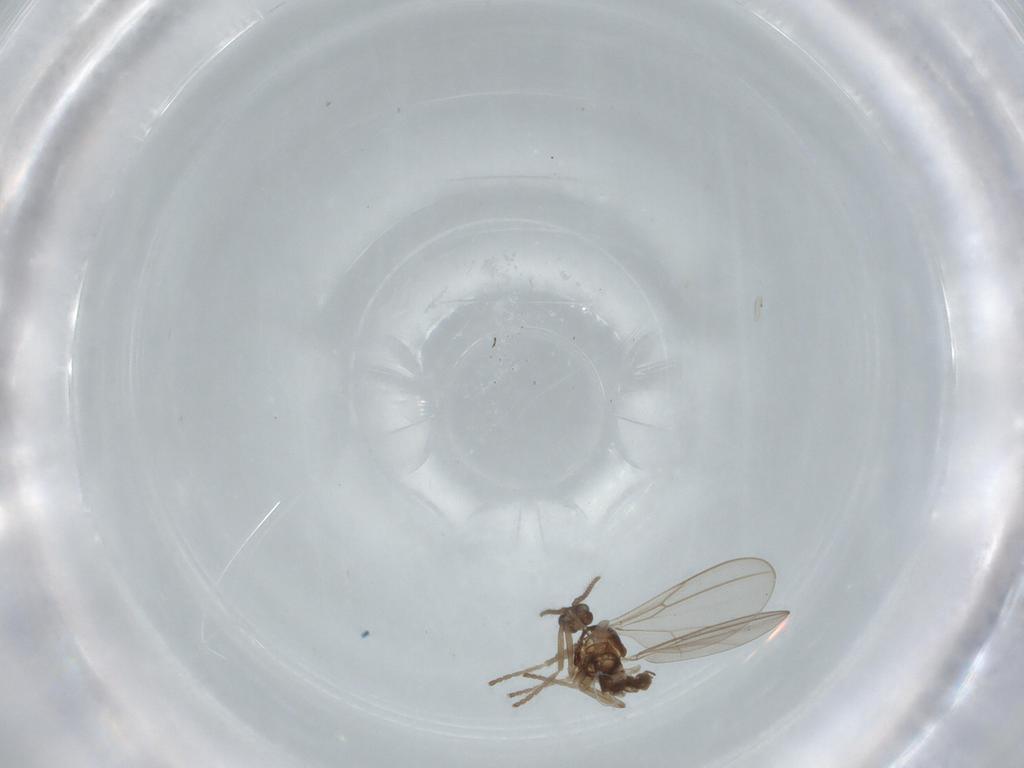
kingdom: Animalia
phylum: Arthropoda
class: Insecta
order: Diptera
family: Cecidomyiidae
